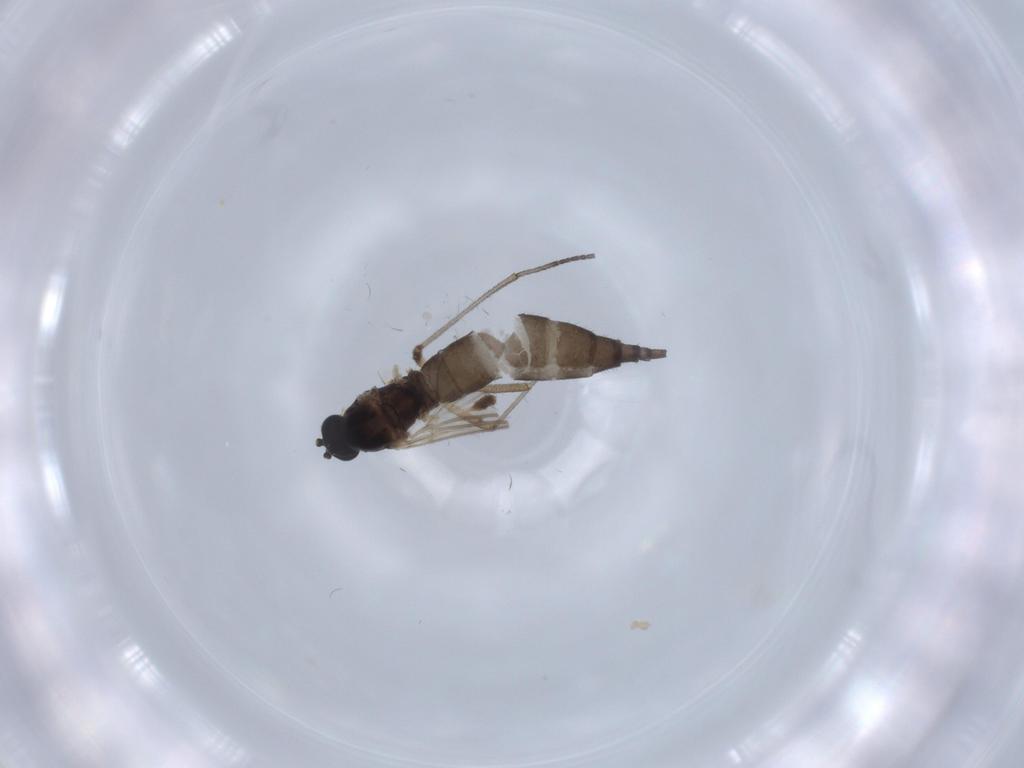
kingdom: Animalia
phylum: Arthropoda
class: Insecta
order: Diptera
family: Sciaridae
